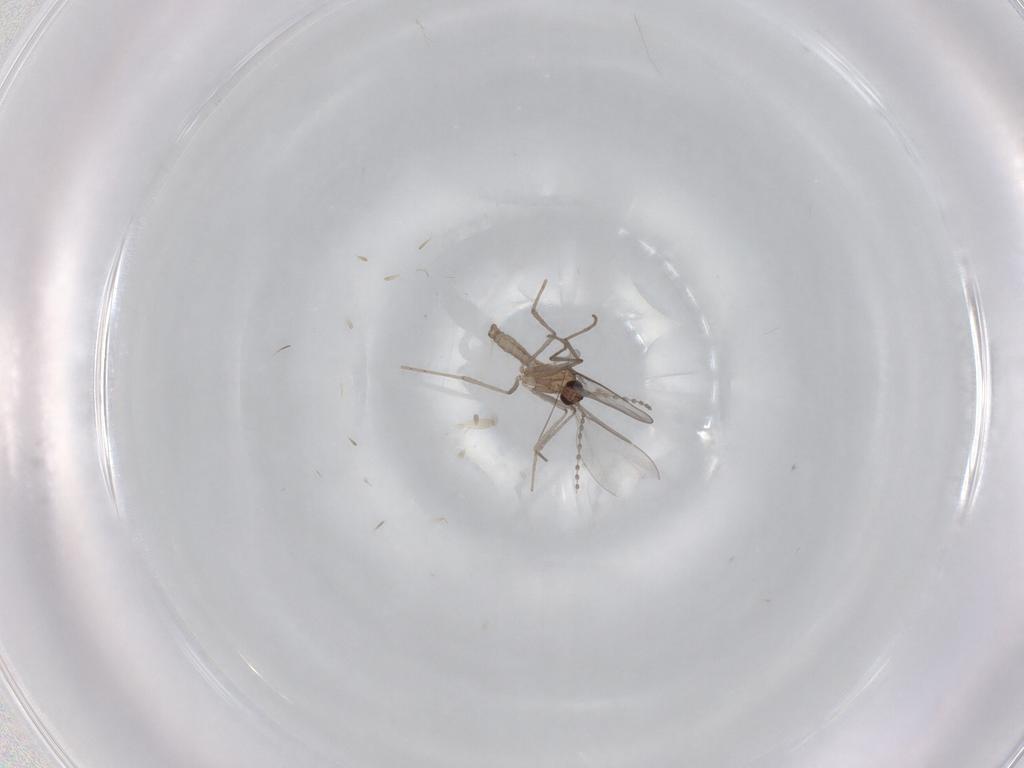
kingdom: Animalia
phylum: Arthropoda
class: Insecta
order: Diptera
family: Cecidomyiidae
